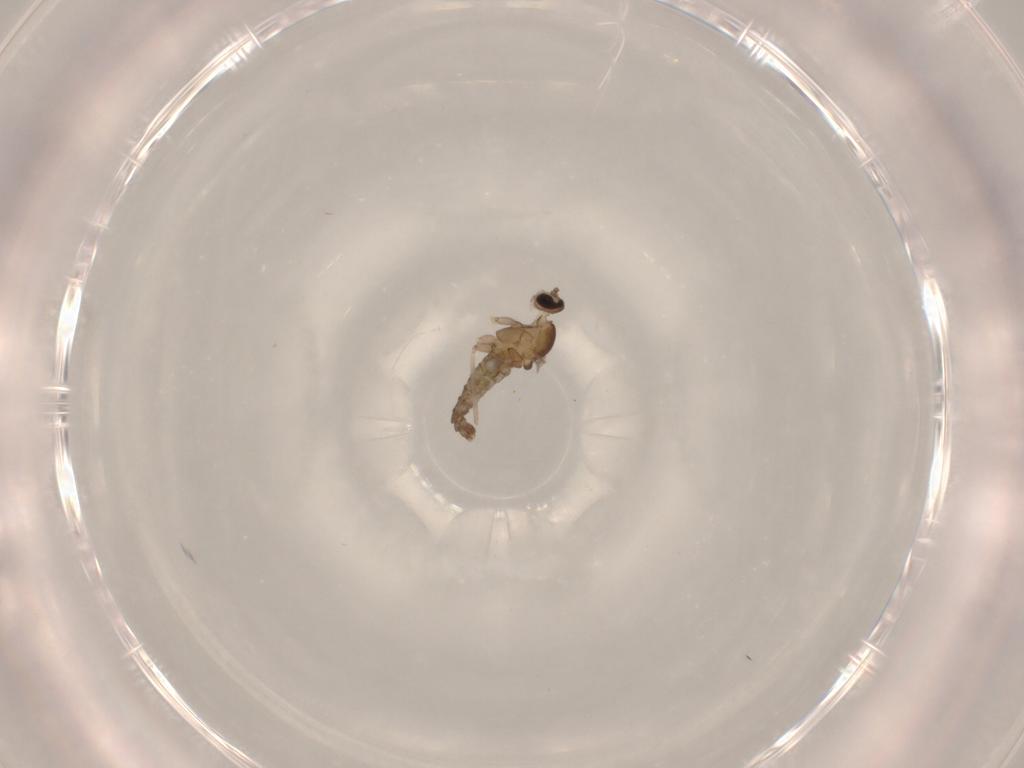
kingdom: Animalia
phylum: Arthropoda
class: Insecta
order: Diptera
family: Cecidomyiidae
